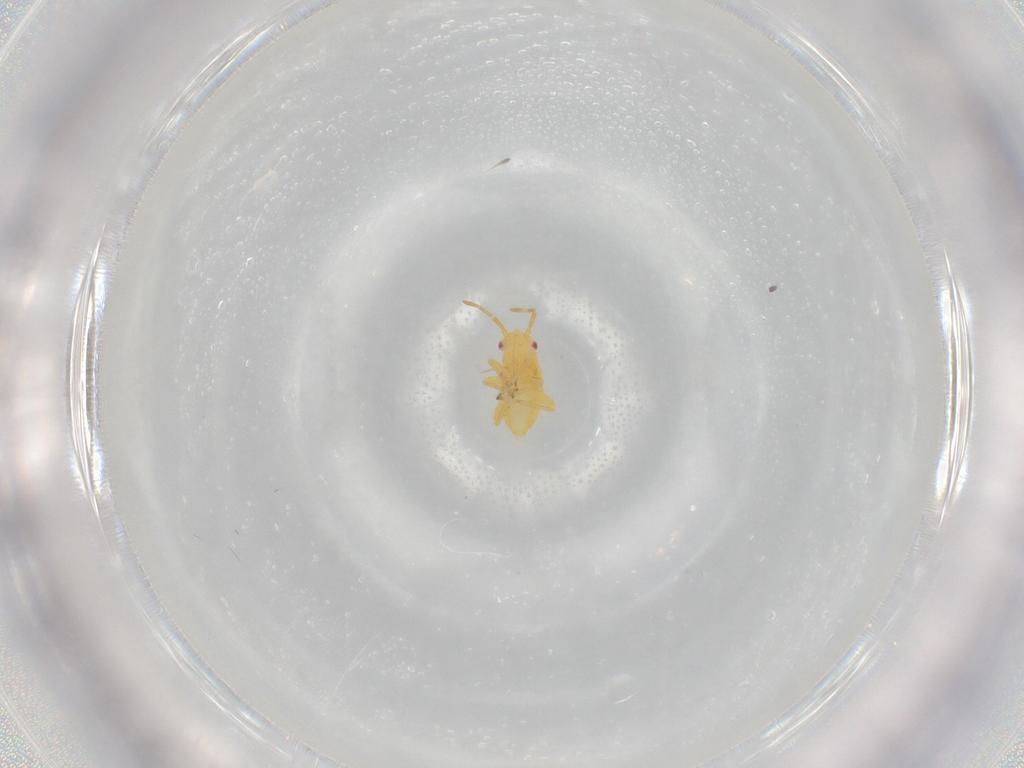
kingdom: Animalia
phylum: Arthropoda
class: Insecta
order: Hemiptera
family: Miridae
